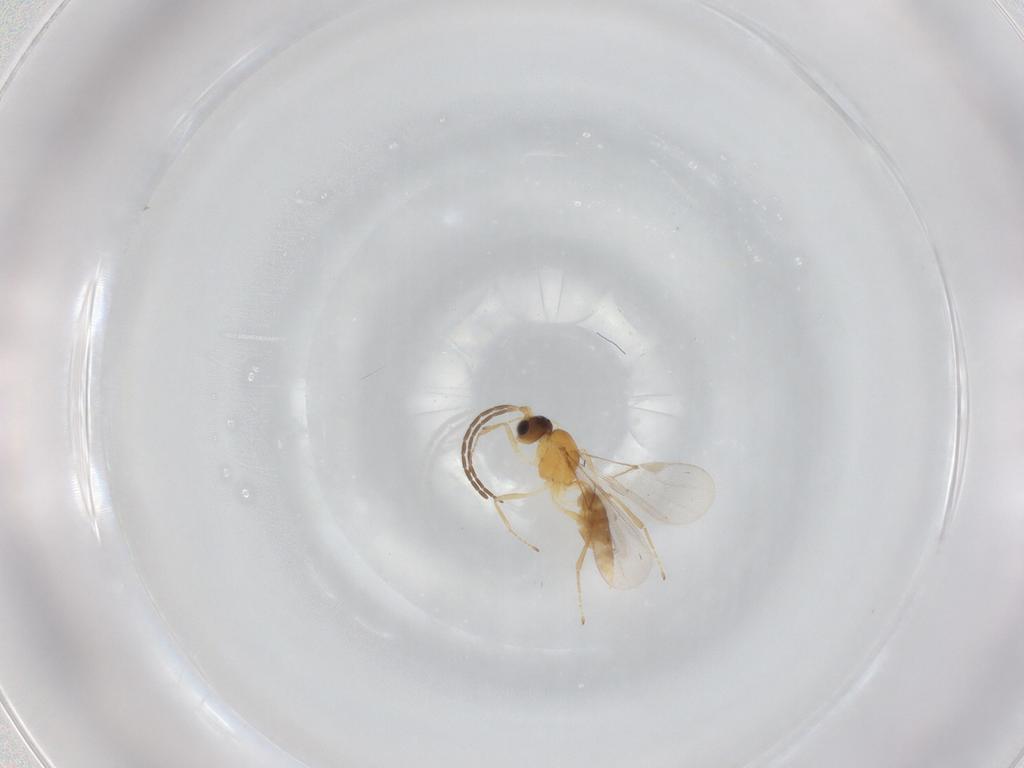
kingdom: Animalia
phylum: Arthropoda
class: Insecta
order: Hymenoptera
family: Braconidae
